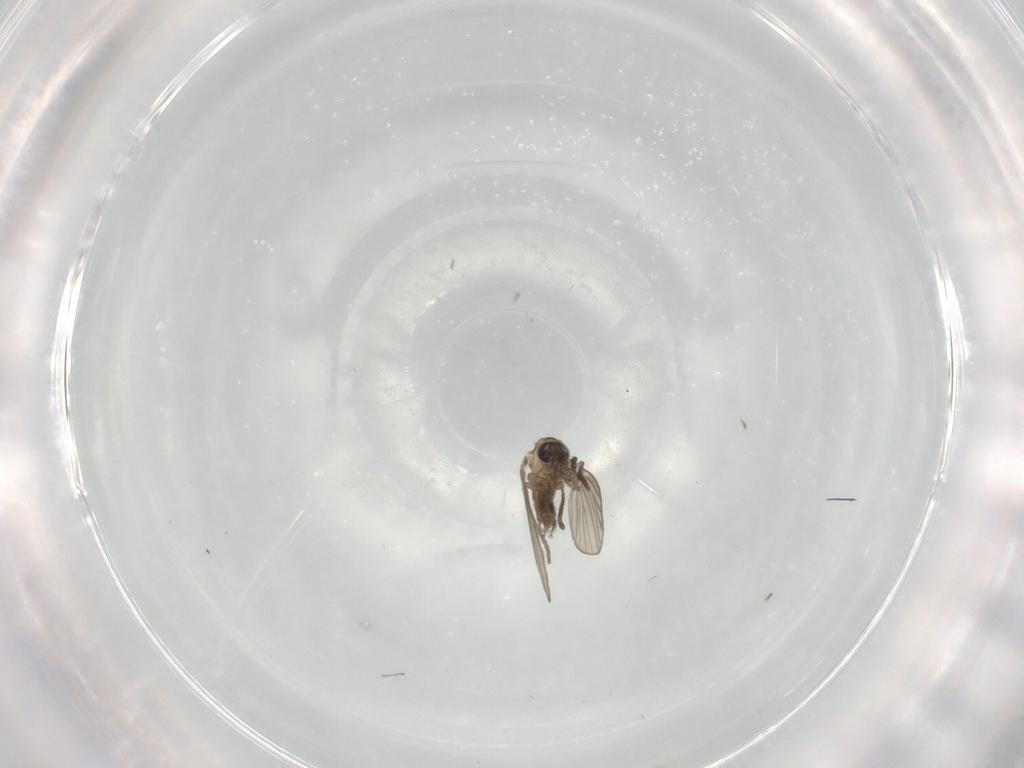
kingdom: Animalia
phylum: Arthropoda
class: Insecta
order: Diptera
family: Psychodidae
